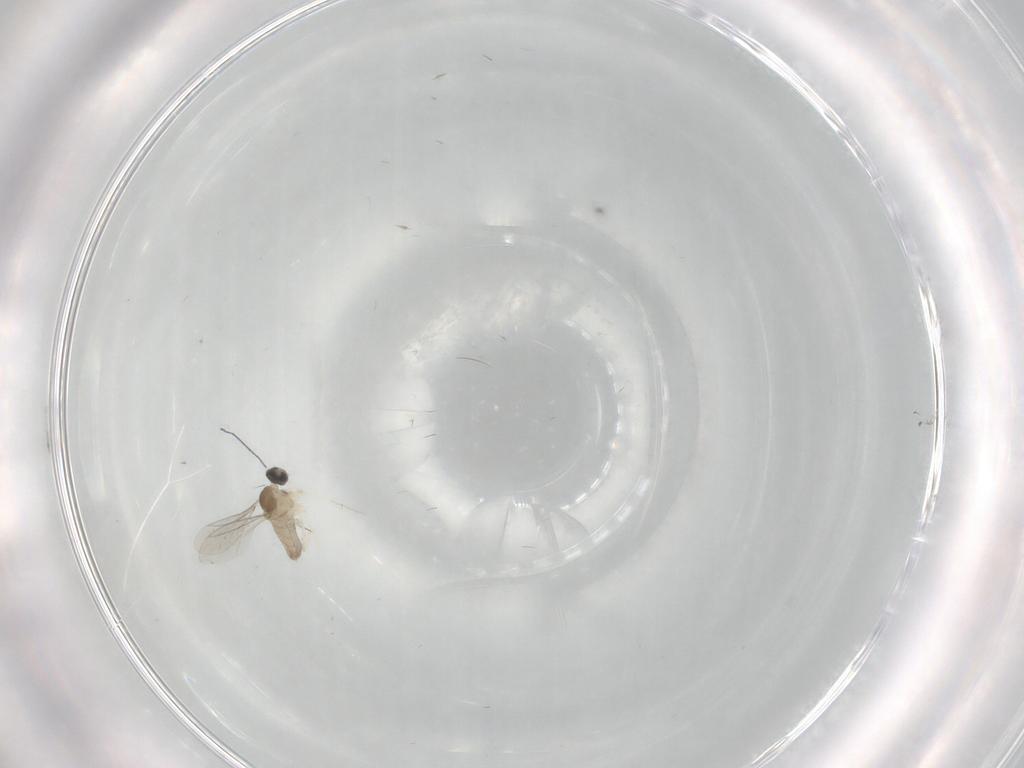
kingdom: Animalia
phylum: Arthropoda
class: Insecta
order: Diptera
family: Cecidomyiidae
